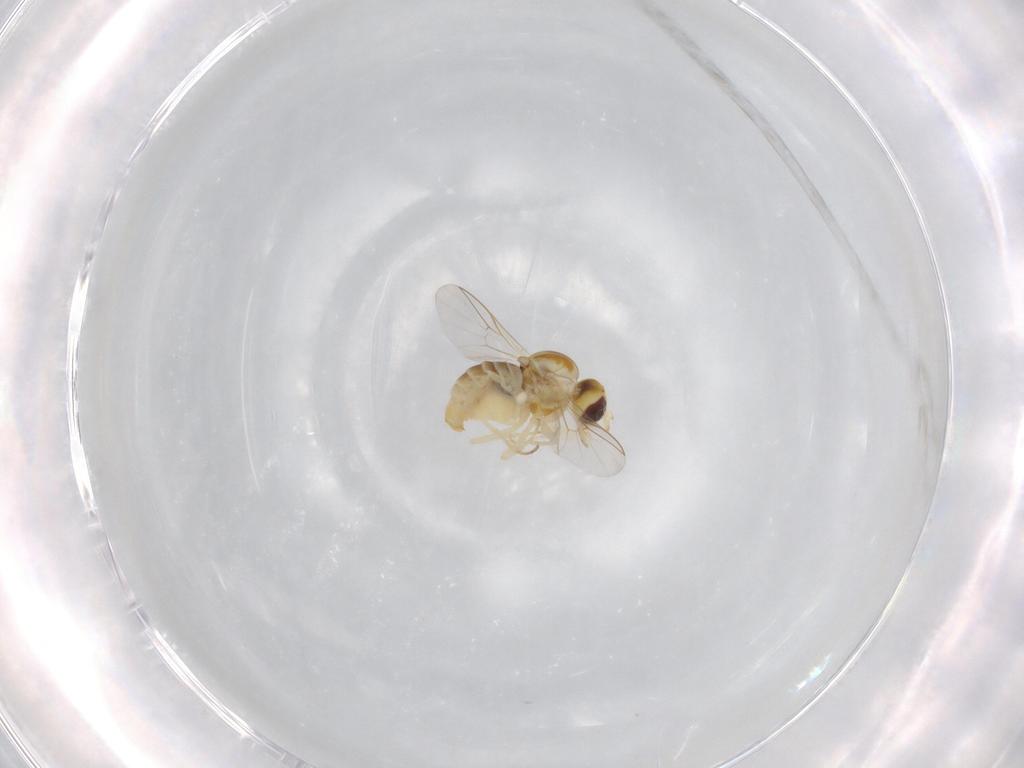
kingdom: Animalia
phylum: Arthropoda
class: Insecta
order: Diptera
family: Mythicomyiidae
